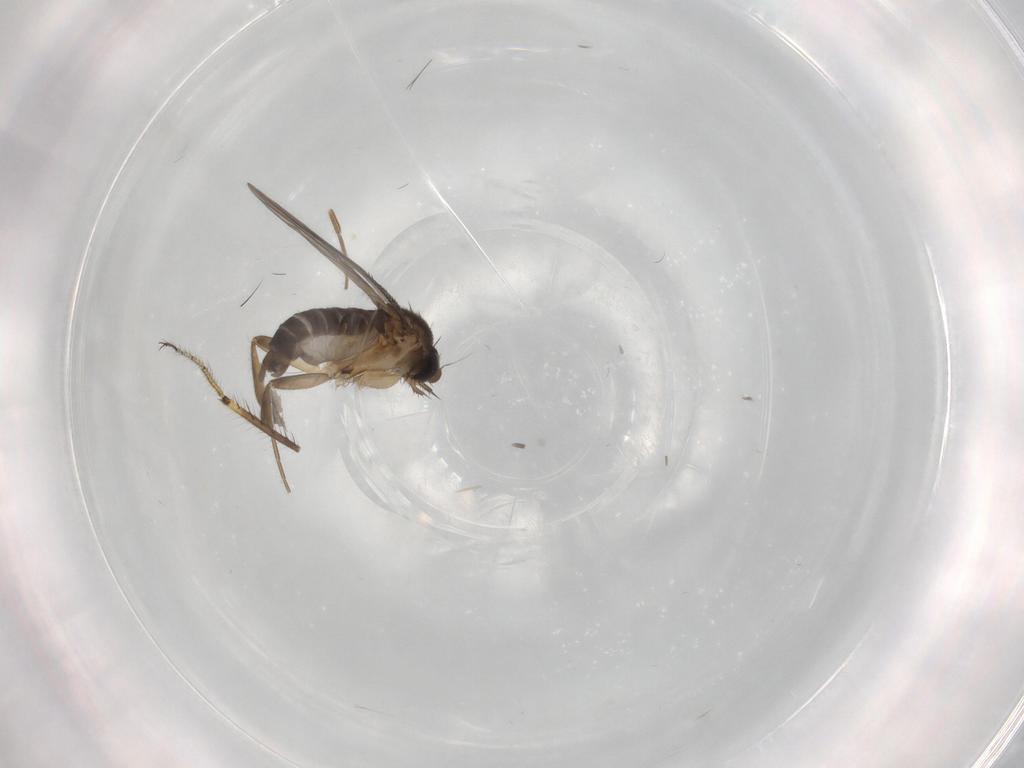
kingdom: Animalia
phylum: Arthropoda
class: Insecta
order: Diptera
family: Phoridae
